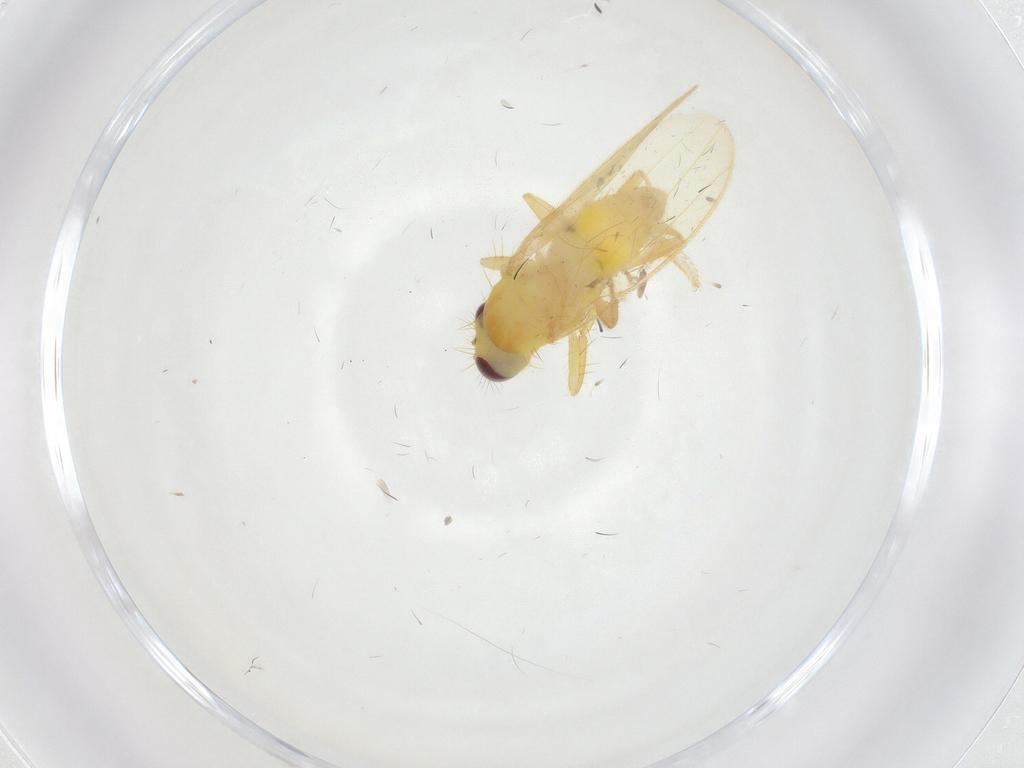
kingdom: Animalia
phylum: Arthropoda
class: Insecta
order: Diptera
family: Periscelididae
